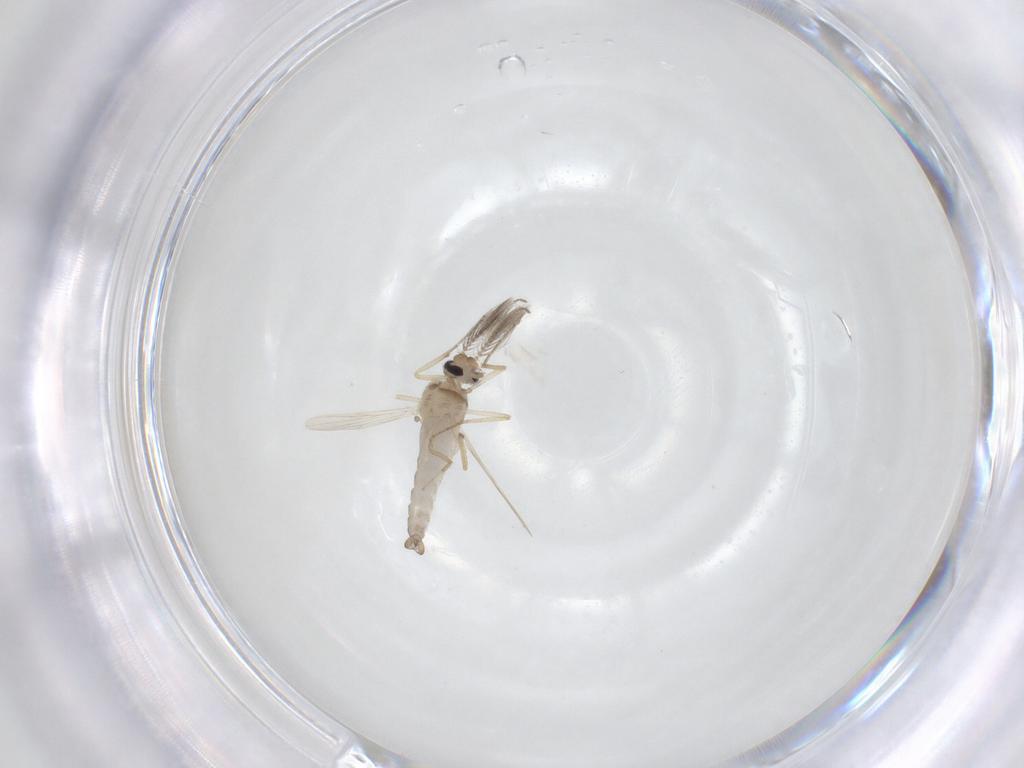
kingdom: Animalia
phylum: Arthropoda
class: Insecta
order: Diptera
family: Ceratopogonidae
